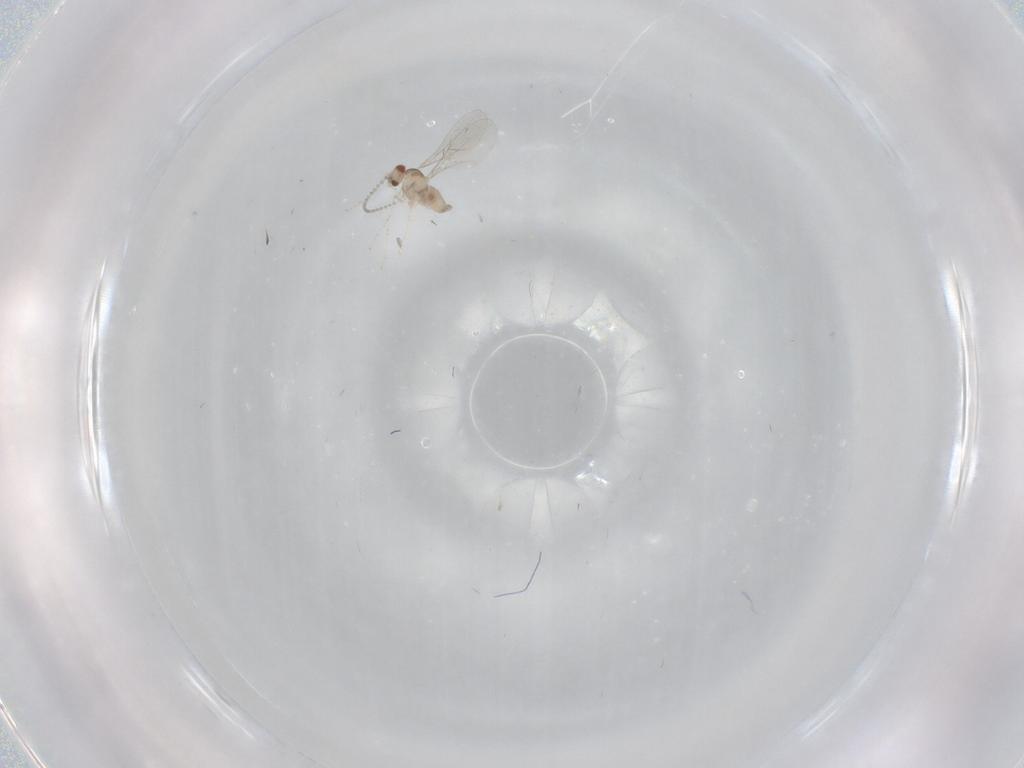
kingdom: Animalia
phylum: Arthropoda
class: Insecta
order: Diptera
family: Cecidomyiidae
